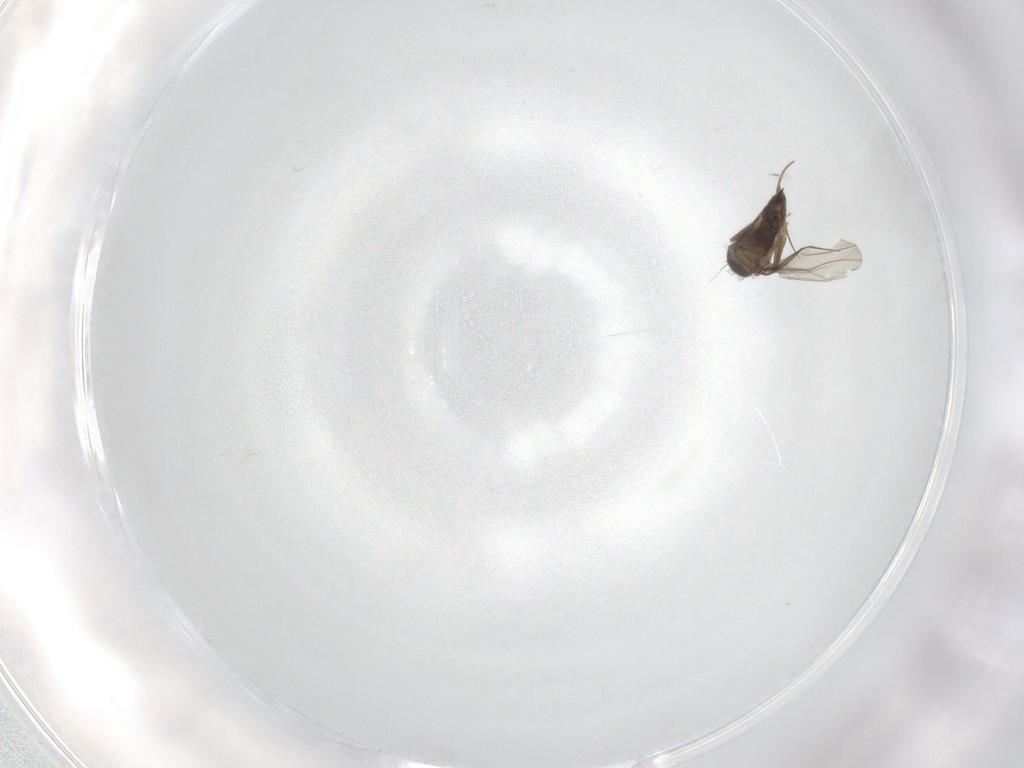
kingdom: Animalia
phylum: Arthropoda
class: Insecta
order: Diptera
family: Phoridae
